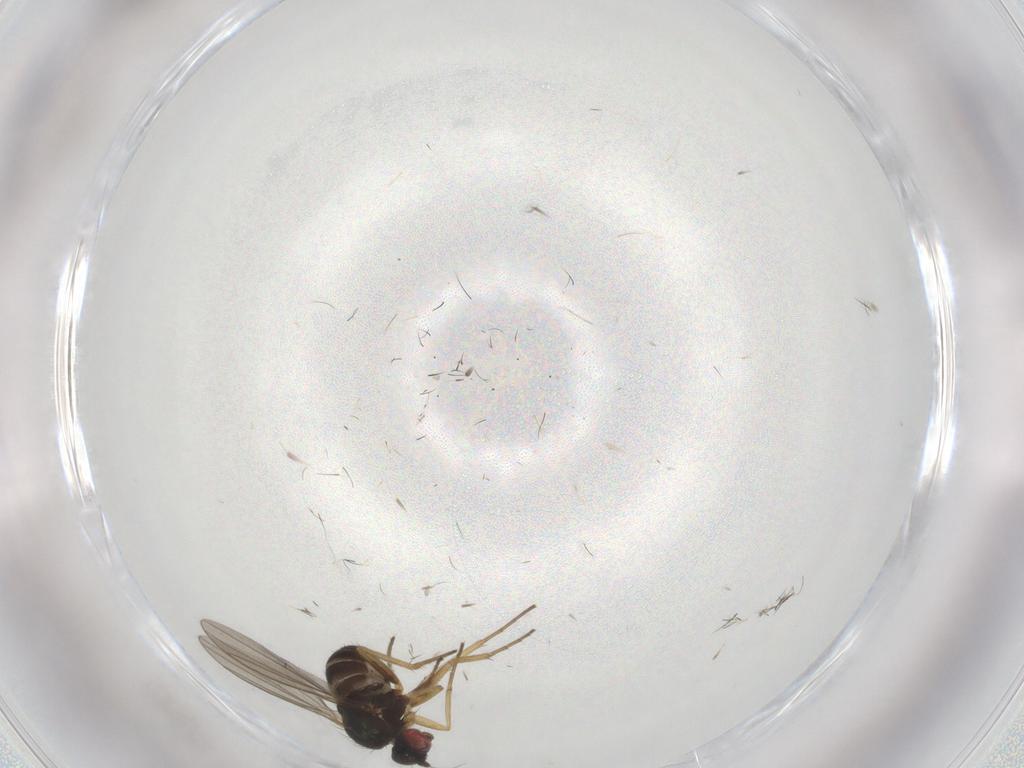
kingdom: Animalia
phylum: Arthropoda
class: Insecta
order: Diptera
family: Dolichopodidae
